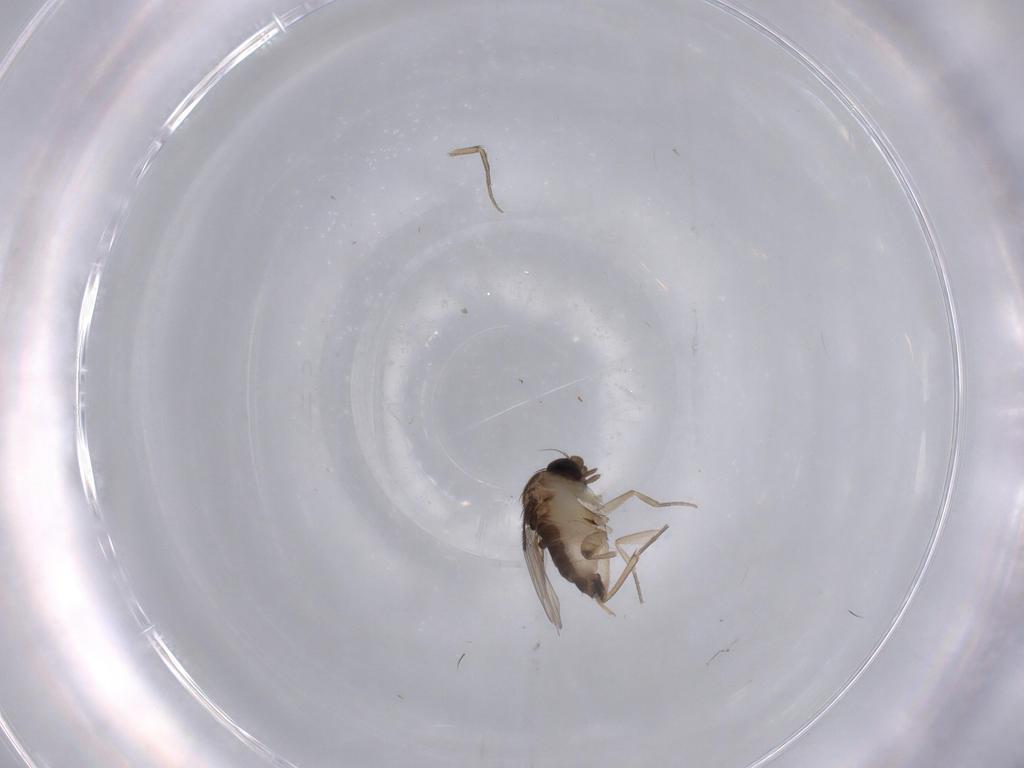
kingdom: Animalia
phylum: Arthropoda
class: Insecta
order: Diptera
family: Phoridae
